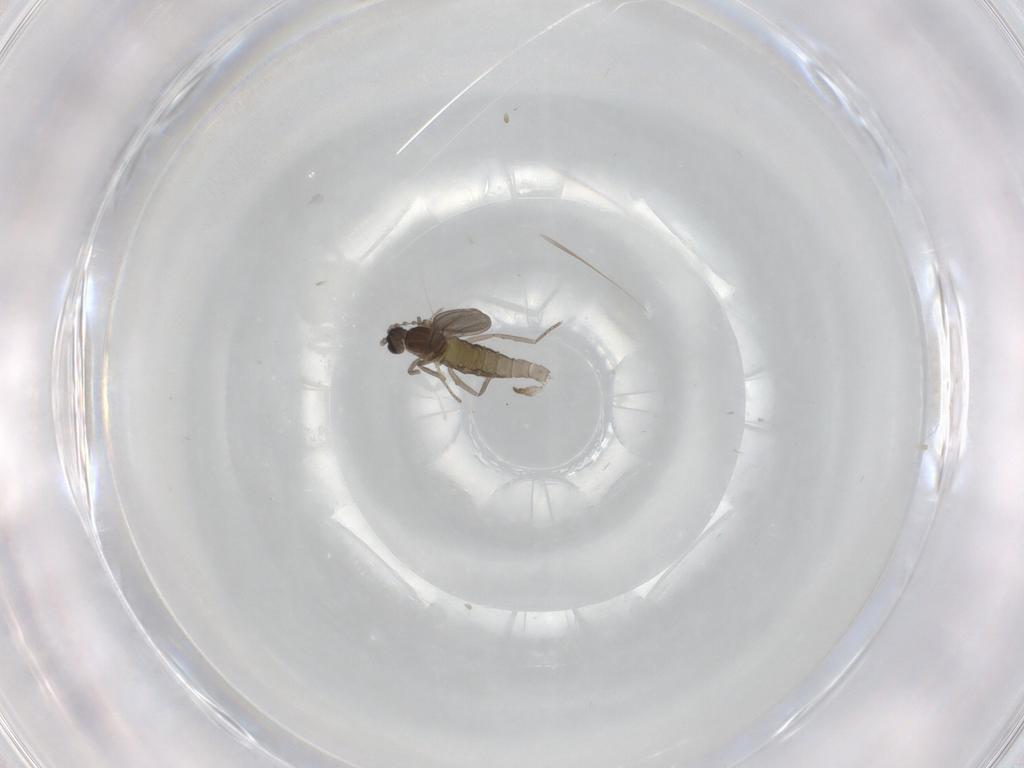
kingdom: Animalia
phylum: Arthropoda
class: Insecta
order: Diptera
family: Cecidomyiidae
